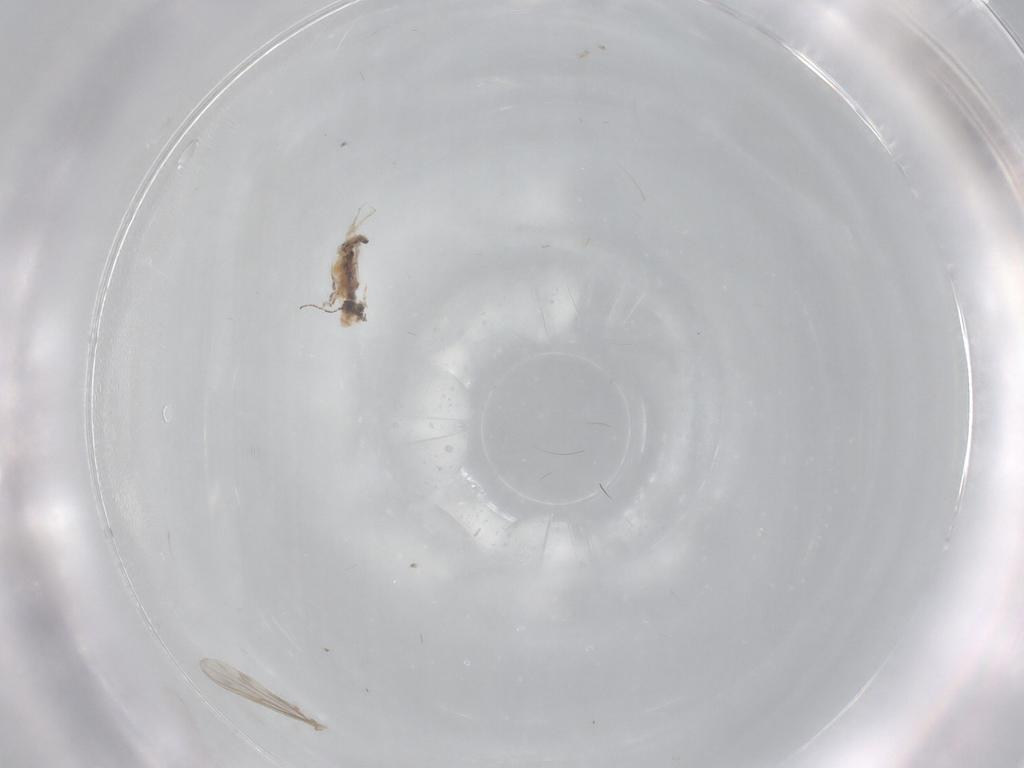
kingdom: Animalia
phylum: Arthropoda
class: Insecta
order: Diptera
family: Cecidomyiidae
